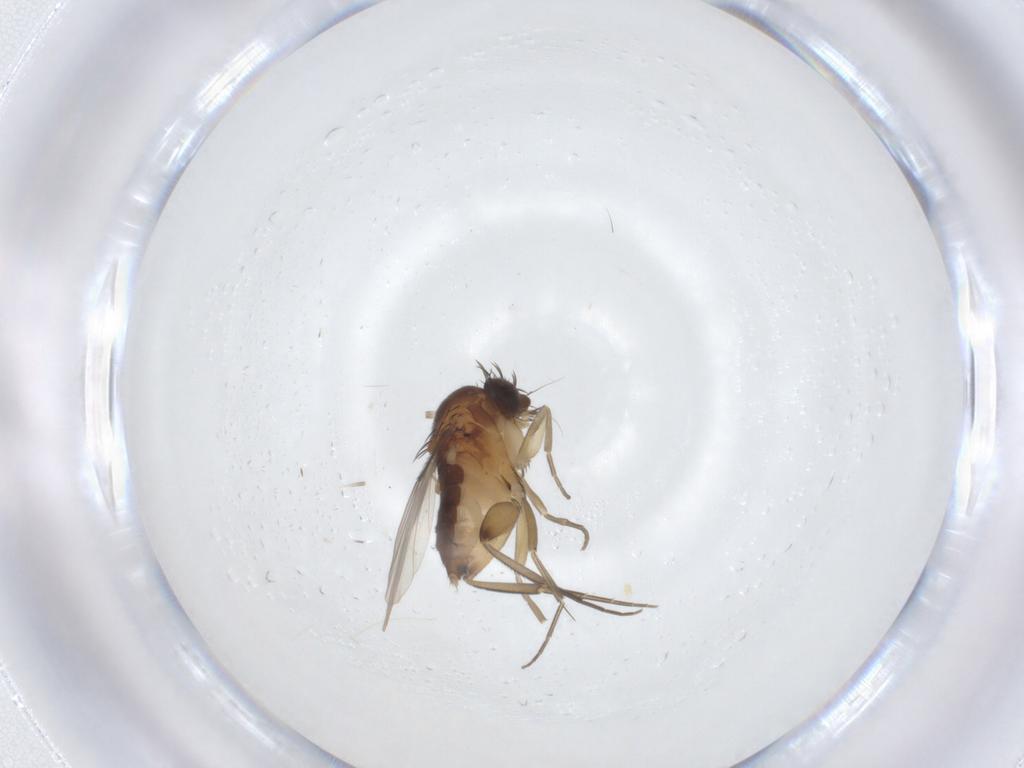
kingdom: Animalia
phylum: Arthropoda
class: Insecta
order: Diptera
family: Phoridae
